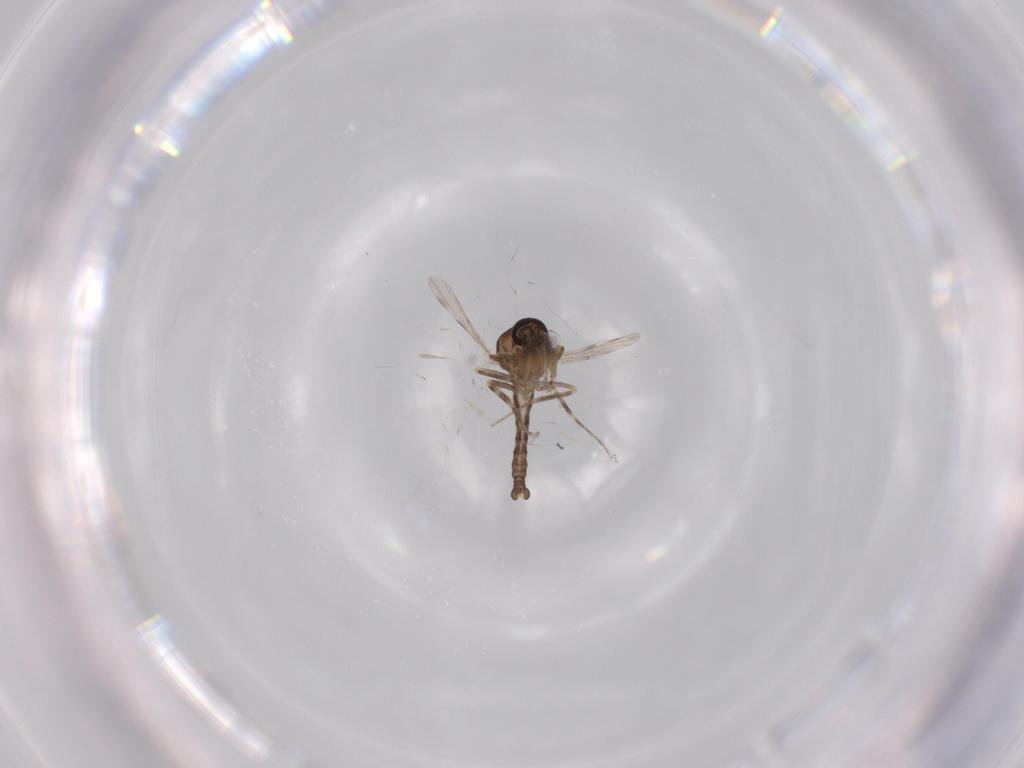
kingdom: Animalia
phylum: Arthropoda
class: Insecta
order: Diptera
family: Ceratopogonidae
